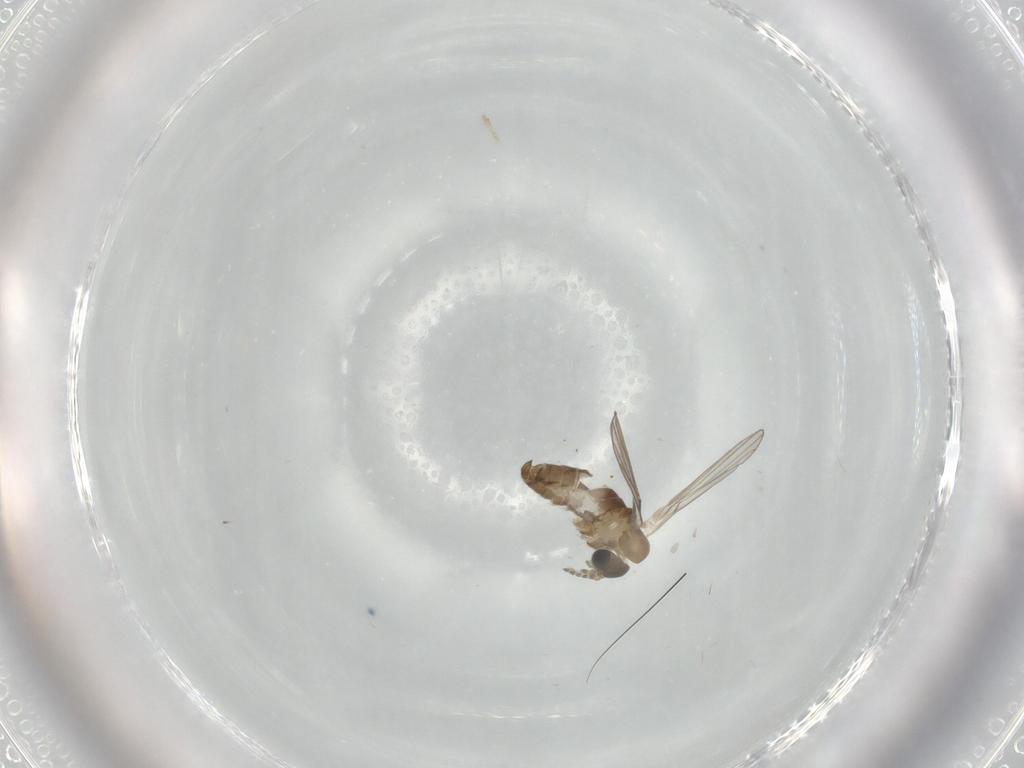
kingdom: Animalia
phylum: Arthropoda
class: Insecta
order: Diptera
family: Psychodidae
